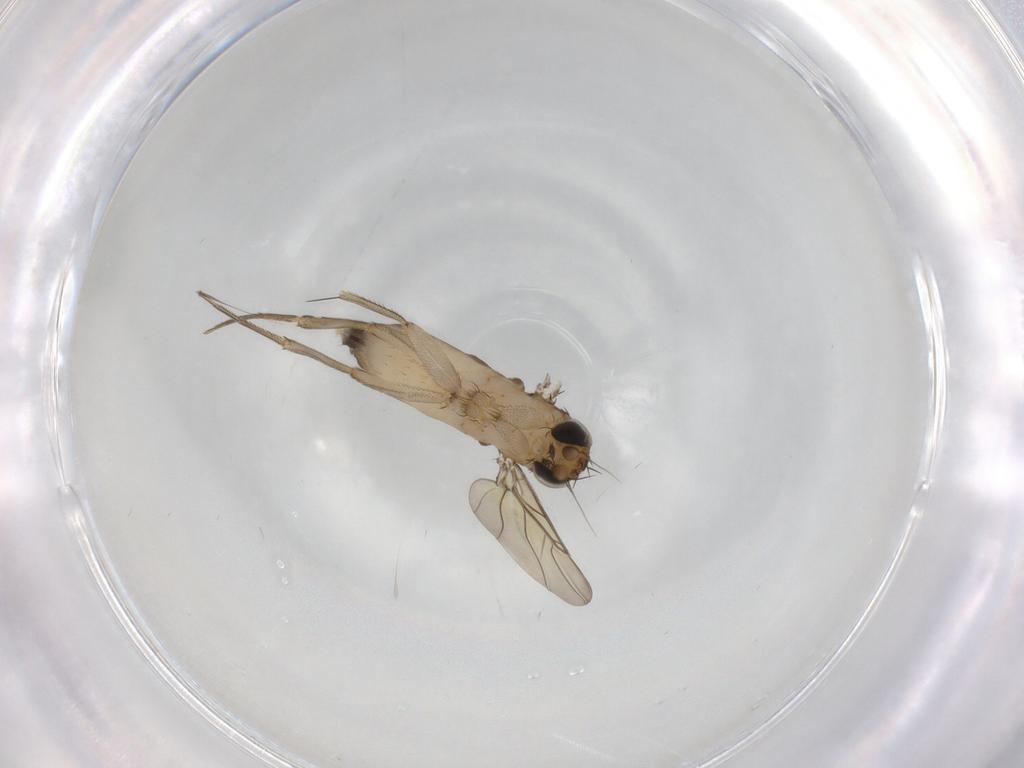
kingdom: Animalia
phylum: Arthropoda
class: Insecta
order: Diptera
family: Phoridae
